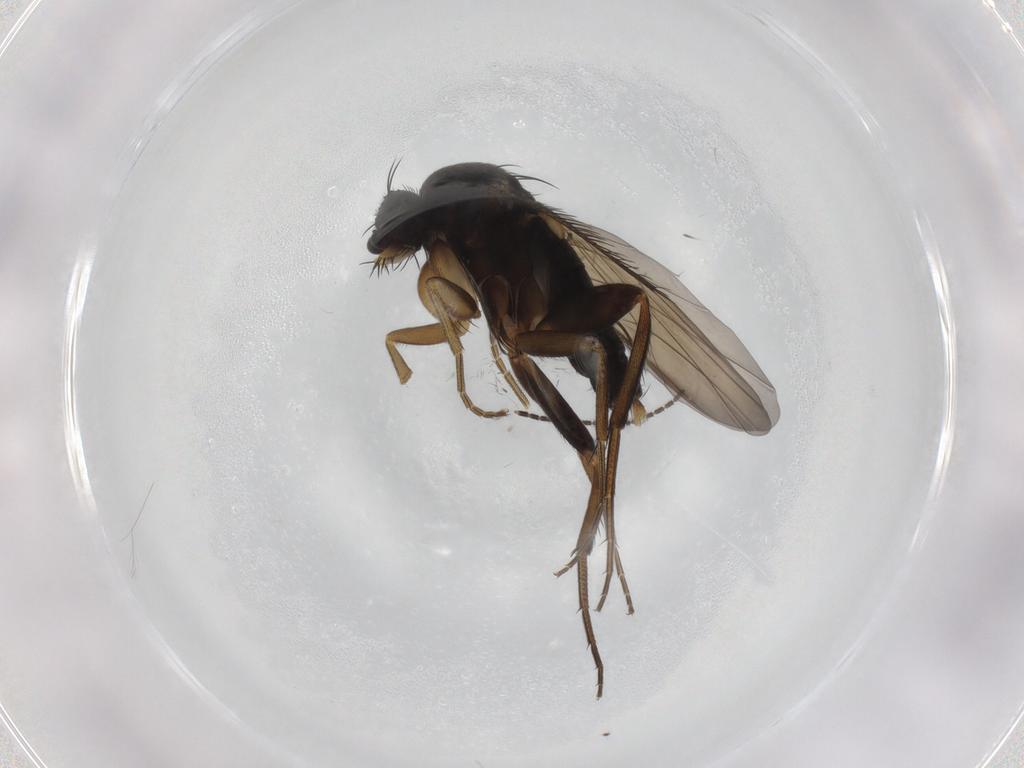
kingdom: Animalia
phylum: Arthropoda
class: Insecta
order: Diptera
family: Phoridae
